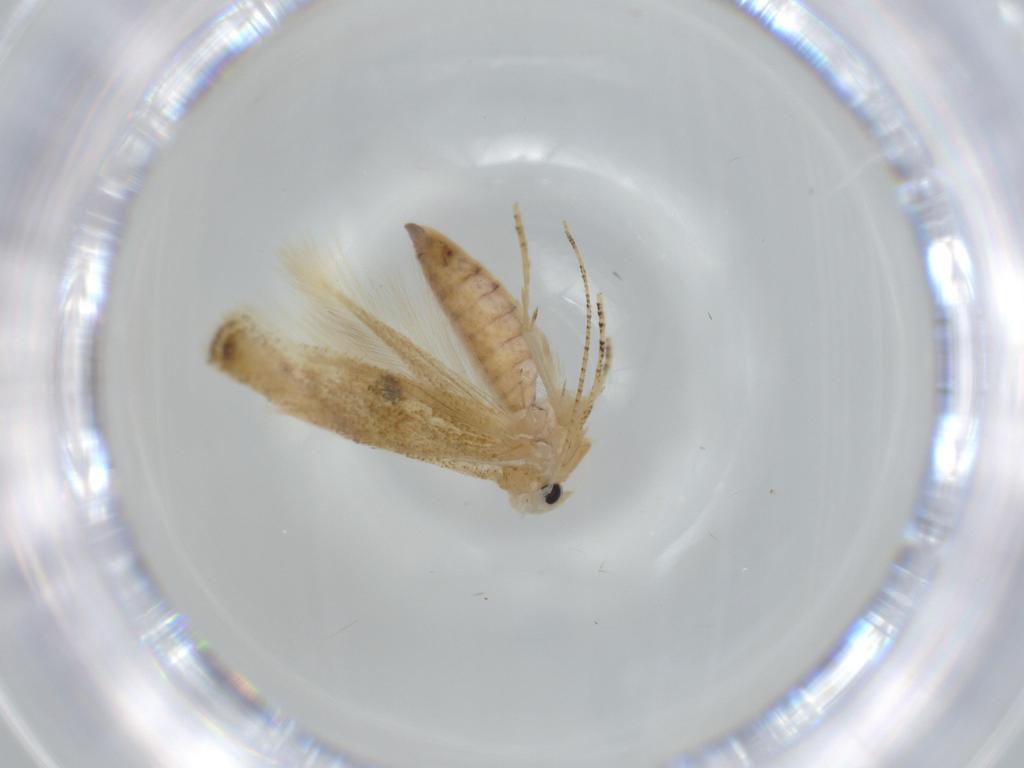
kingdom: Animalia
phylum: Arthropoda
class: Insecta
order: Lepidoptera
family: Bucculatricidae
